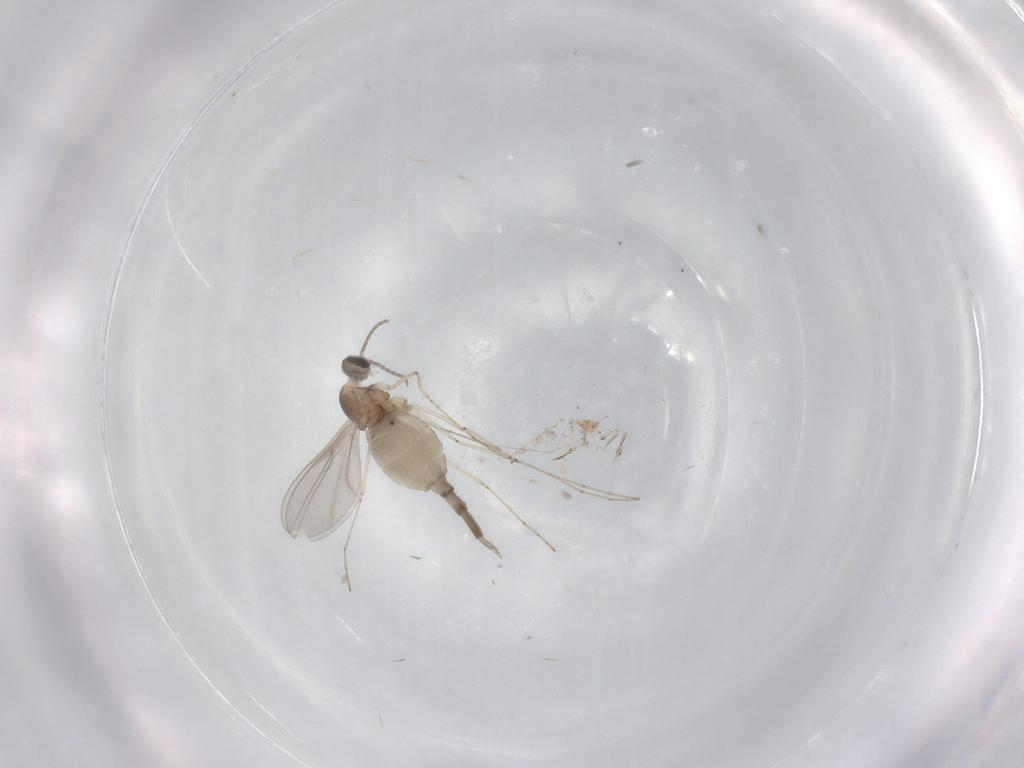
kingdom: Animalia
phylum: Arthropoda
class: Insecta
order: Diptera
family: Cecidomyiidae
